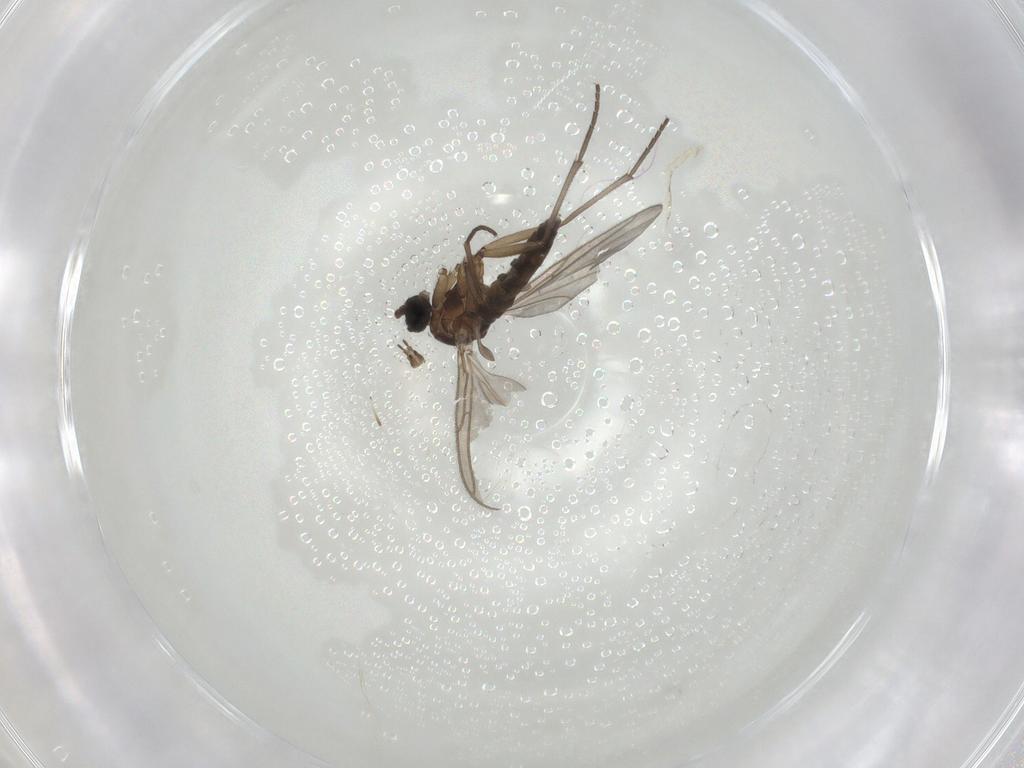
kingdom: Animalia
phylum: Arthropoda
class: Insecta
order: Diptera
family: Sciaridae
